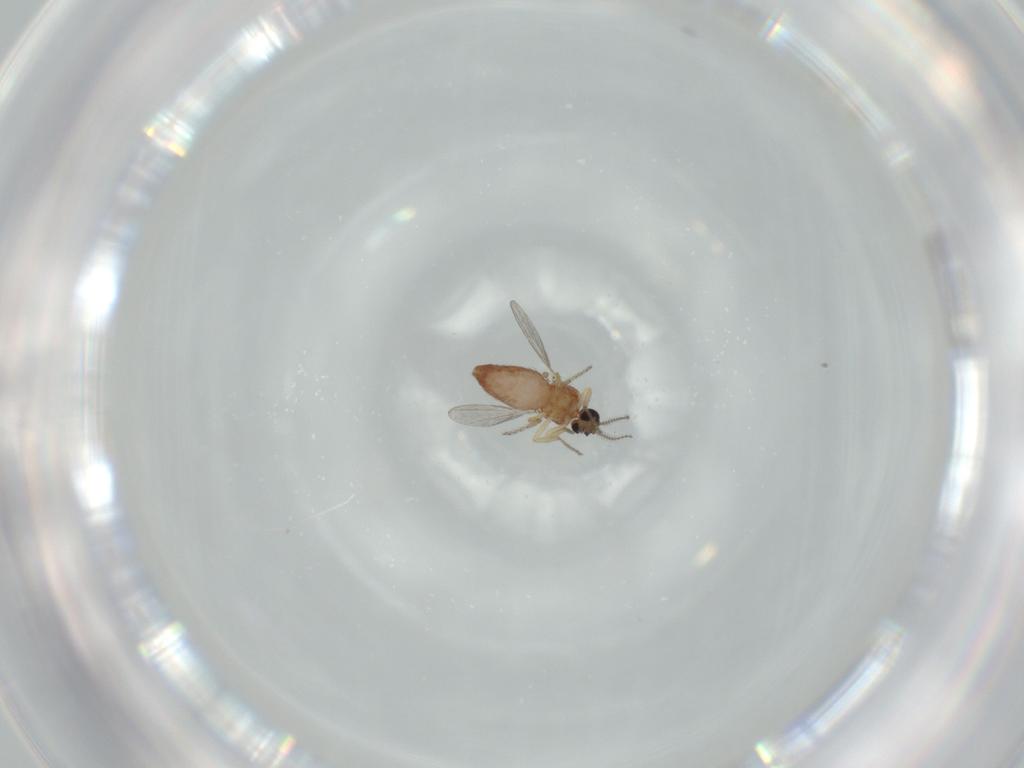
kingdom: Animalia
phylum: Arthropoda
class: Insecta
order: Diptera
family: Ceratopogonidae
